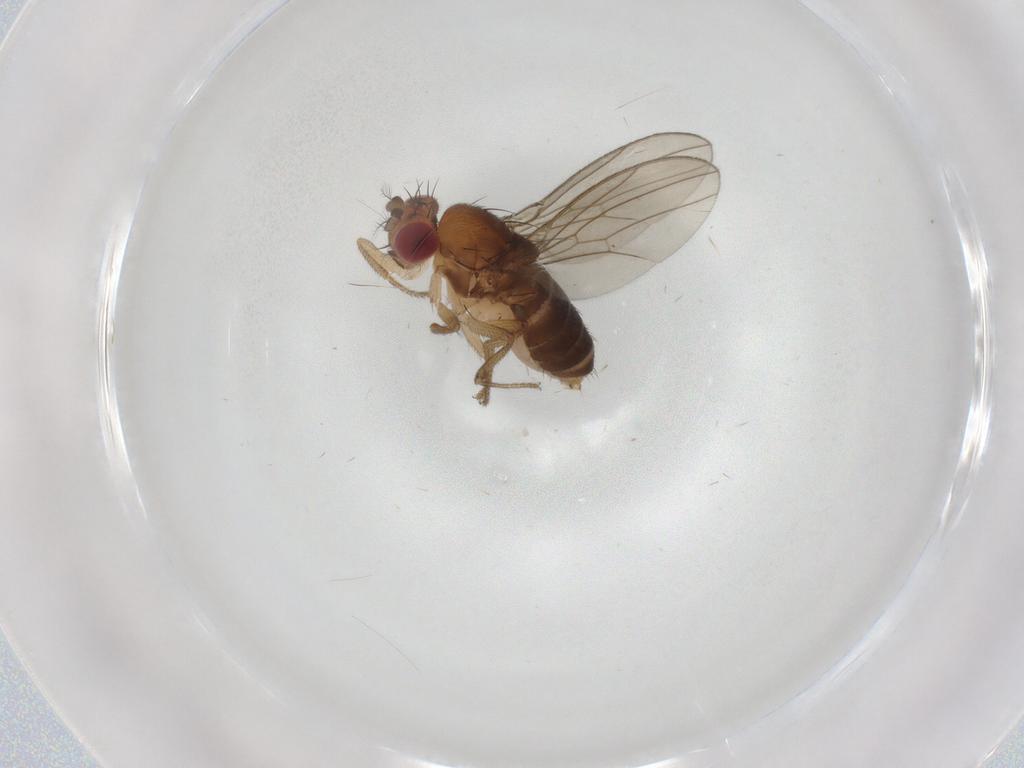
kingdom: Animalia
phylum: Arthropoda
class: Insecta
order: Diptera
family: Drosophilidae
